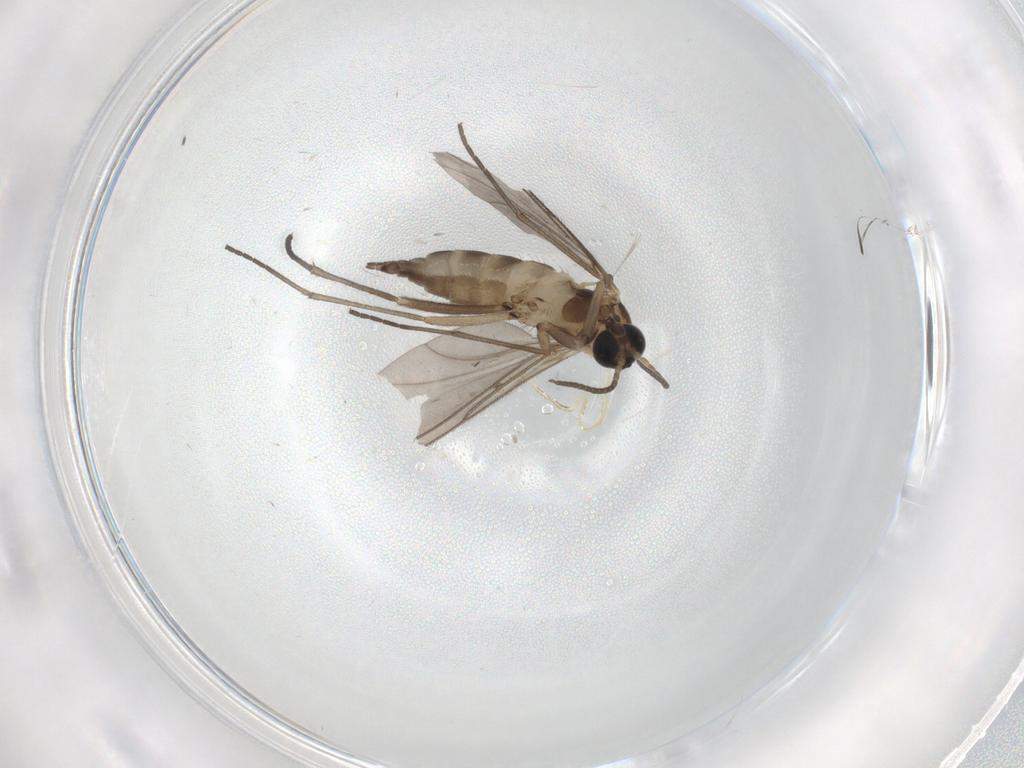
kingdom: Animalia
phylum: Arthropoda
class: Insecta
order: Diptera
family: Sciaridae
